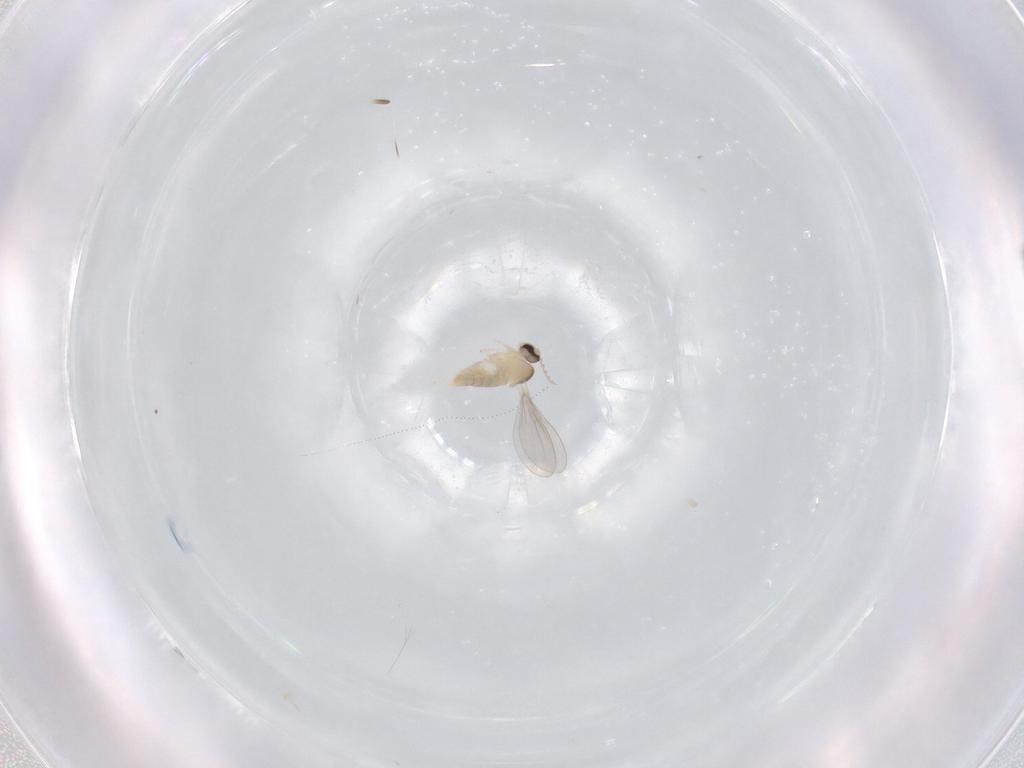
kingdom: Animalia
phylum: Arthropoda
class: Insecta
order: Diptera
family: Cecidomyiidae
